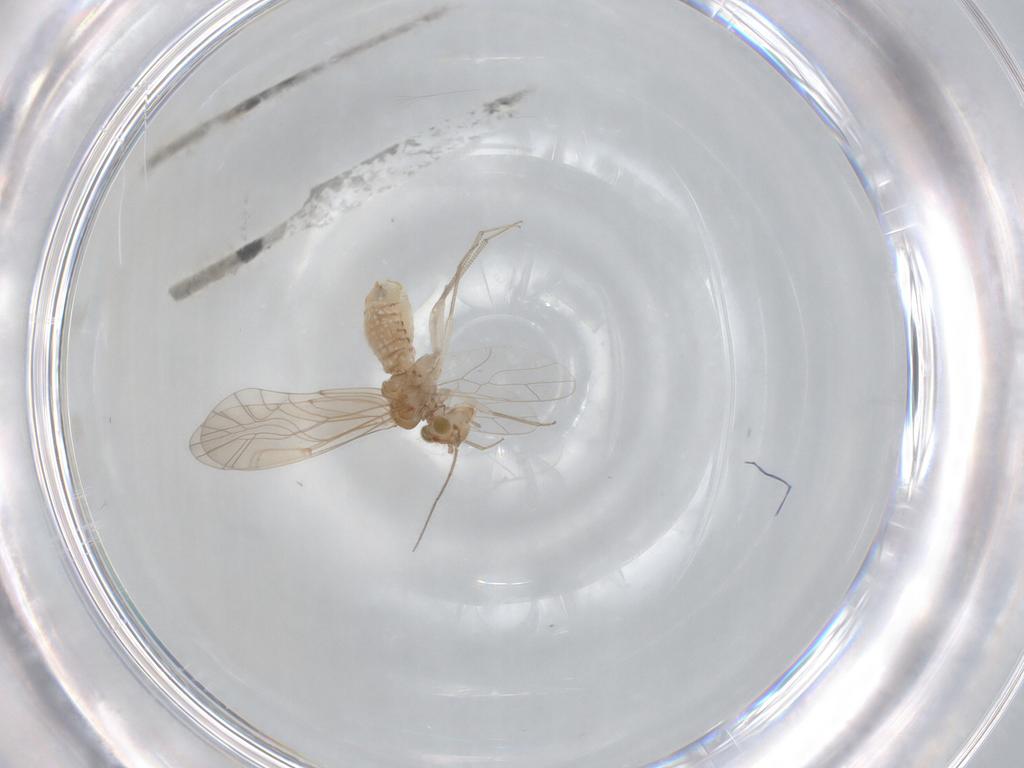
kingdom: Animalia
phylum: Arthropoda
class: Insecta
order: Psocodea
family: Lachesillidae
